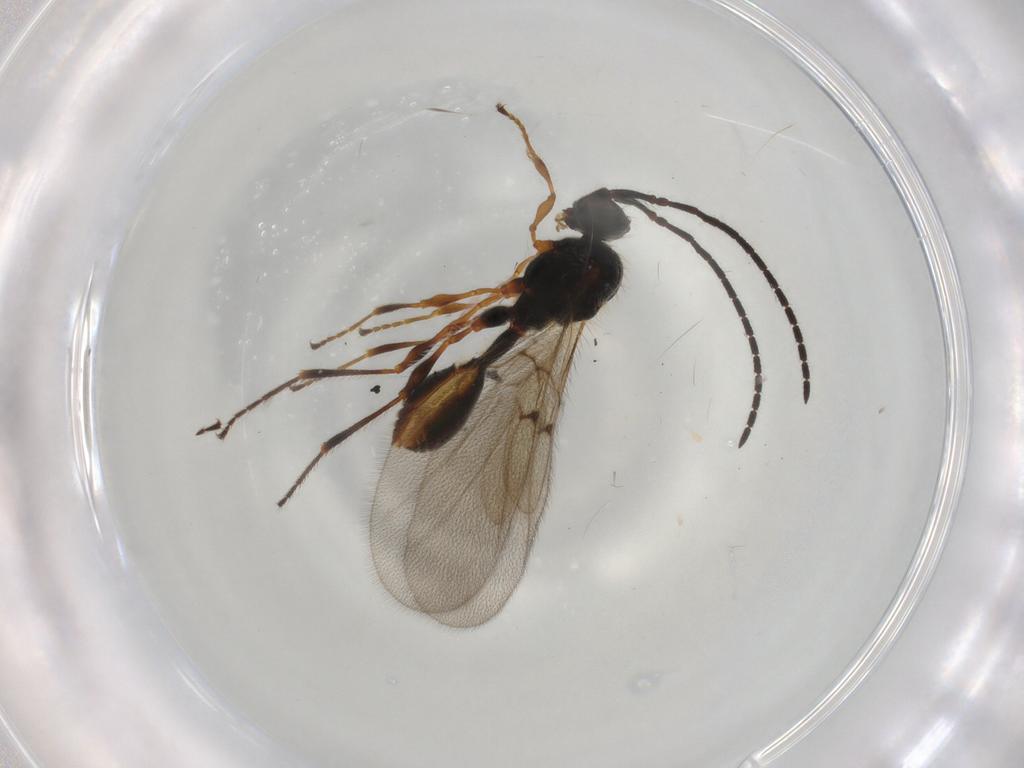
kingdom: Animalia
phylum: Arthropoda
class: Insecta
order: Hymenoptera
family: Diapriidae
